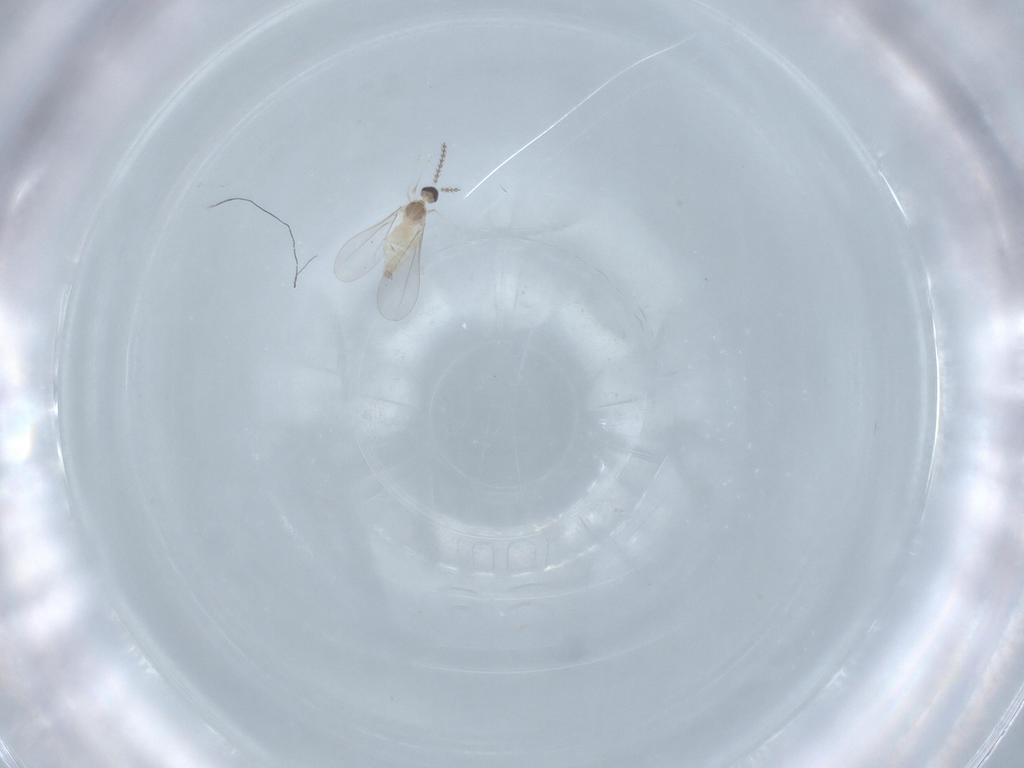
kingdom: Animalia
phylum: Arthropoda
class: Insecta
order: Diptera
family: Cecidomyiidae
